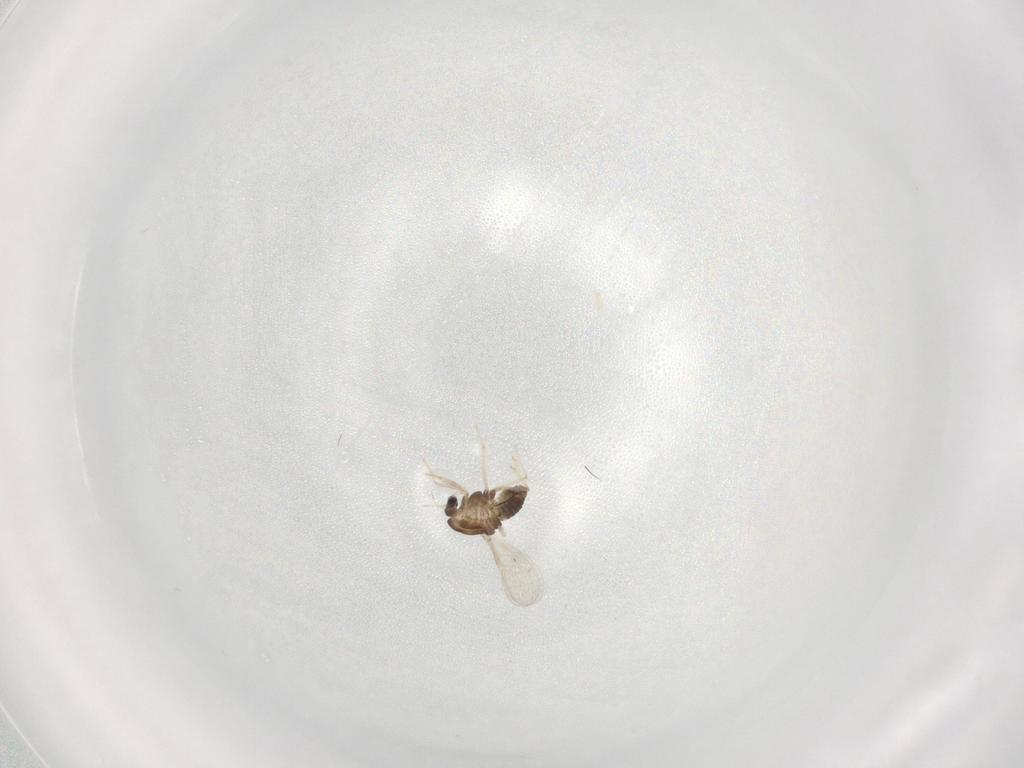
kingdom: Animalia
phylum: Arthropoda
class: Insecta
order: Diptera
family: Chironomidae
